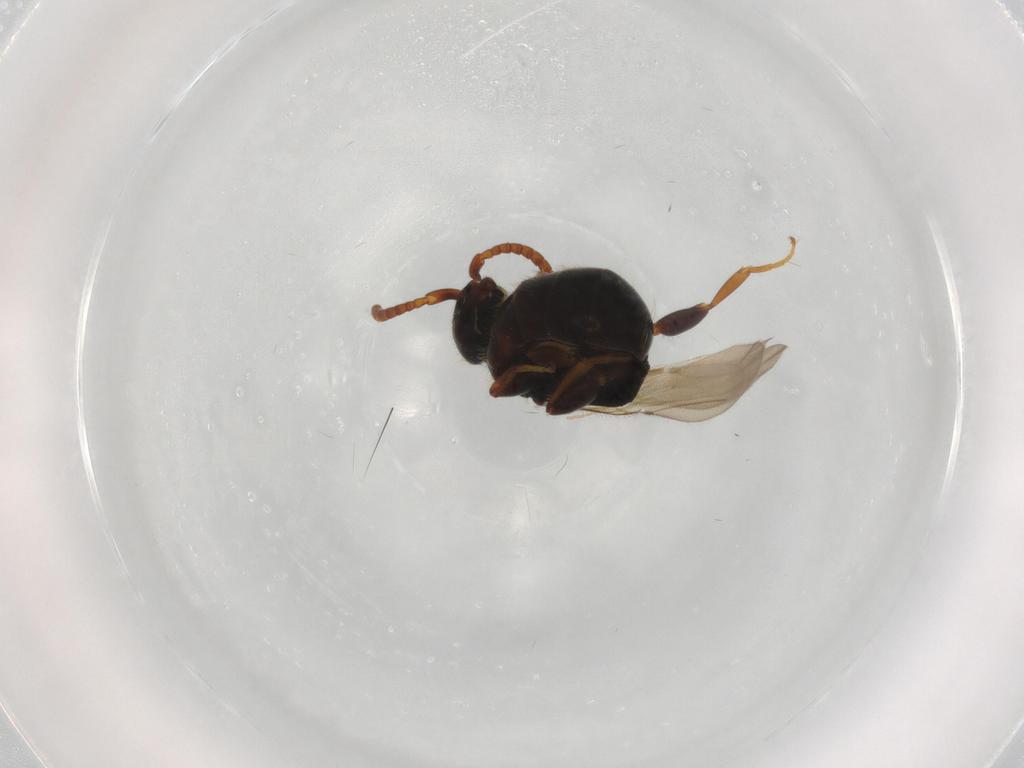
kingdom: Animalia
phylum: Arthropoda
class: Insecta
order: Hymenoptera
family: Bethylidae
